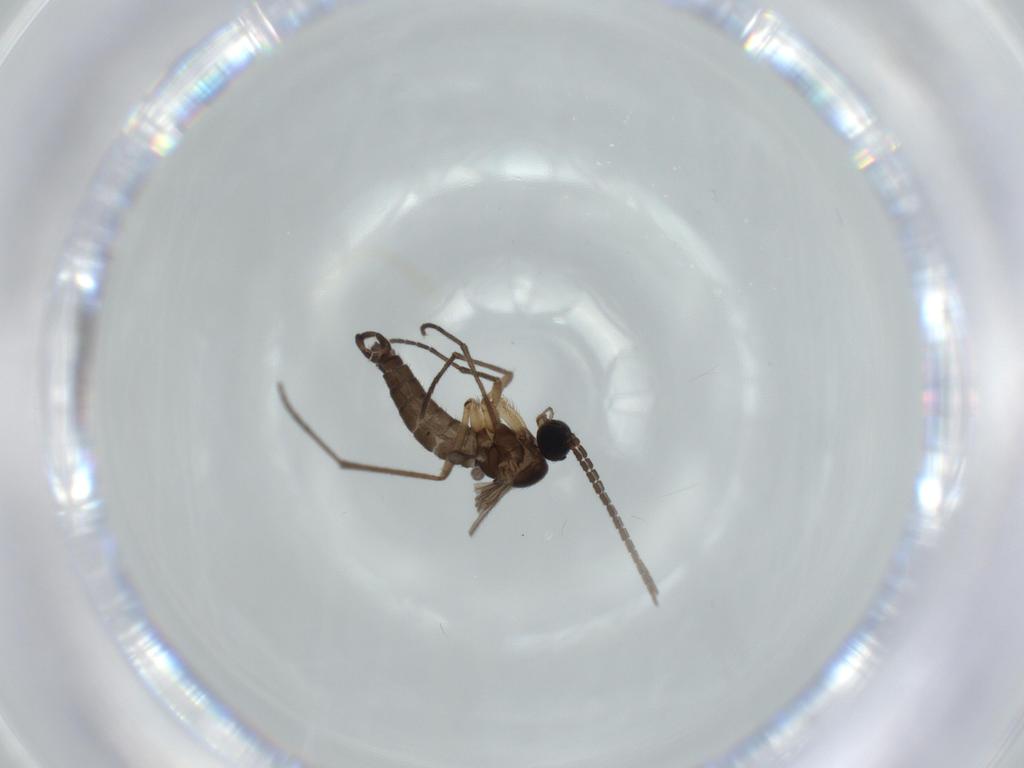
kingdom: Animalia
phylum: Arthropoda
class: Insecta
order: Diptera
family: Sciaridae
